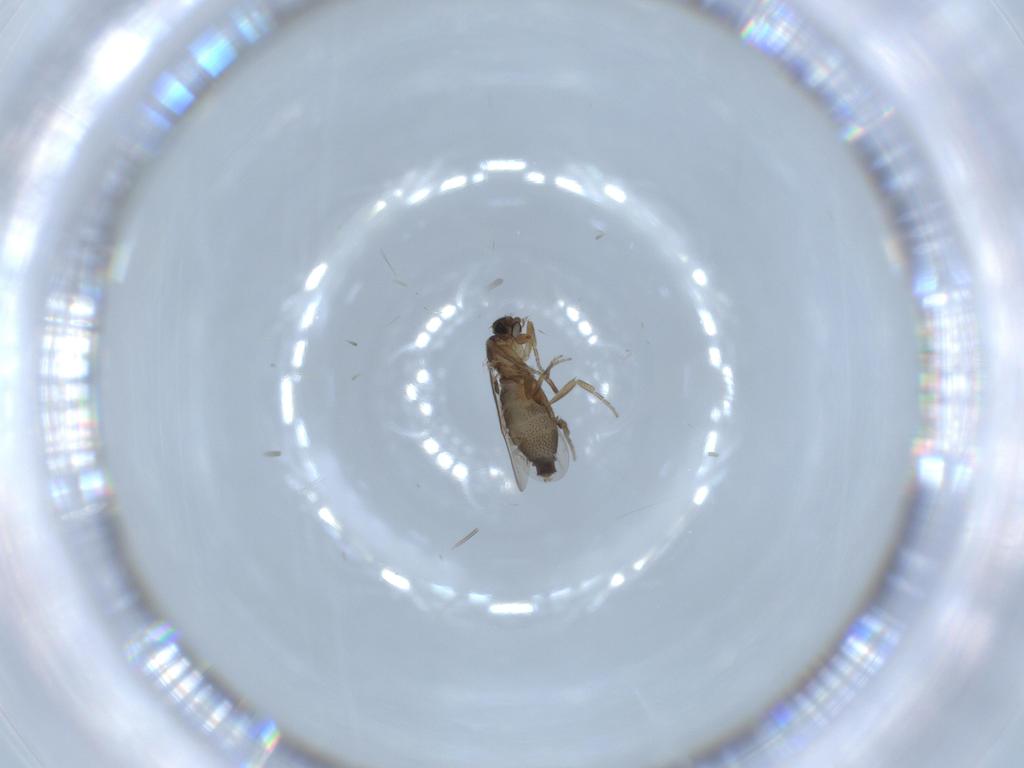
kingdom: Animalia
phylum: Arthropoda
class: Insecta
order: Diptera
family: Phoridae
